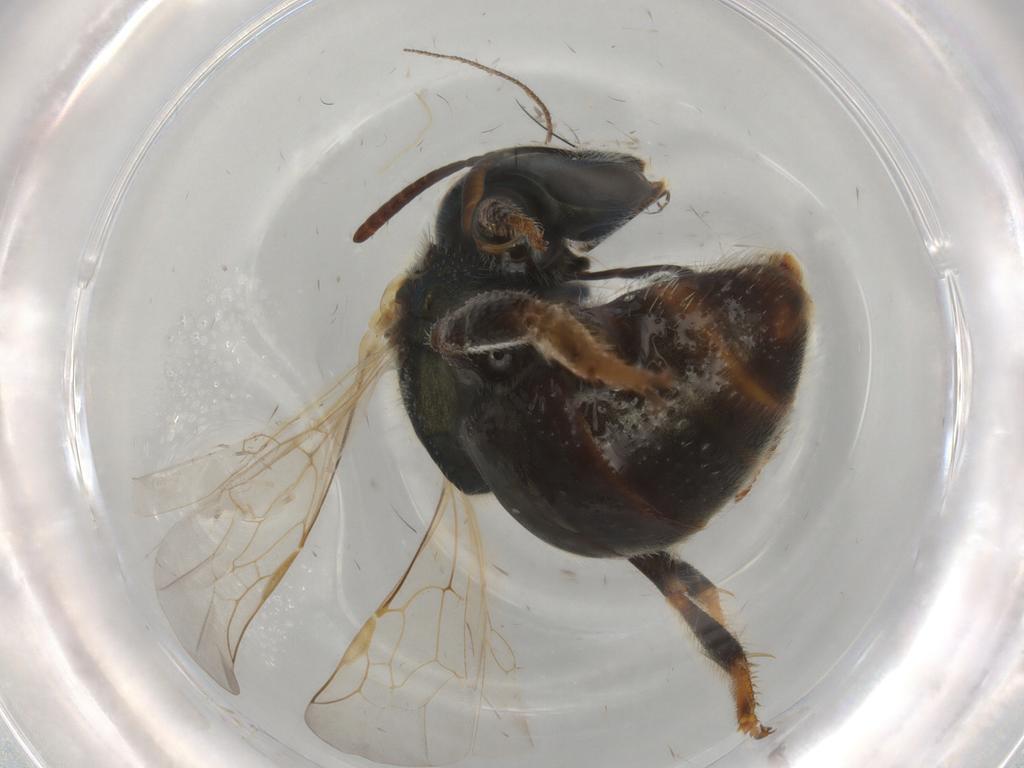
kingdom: Animalia
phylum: Arthropoda
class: Insecta
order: Hymenoptera
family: Halictidae
